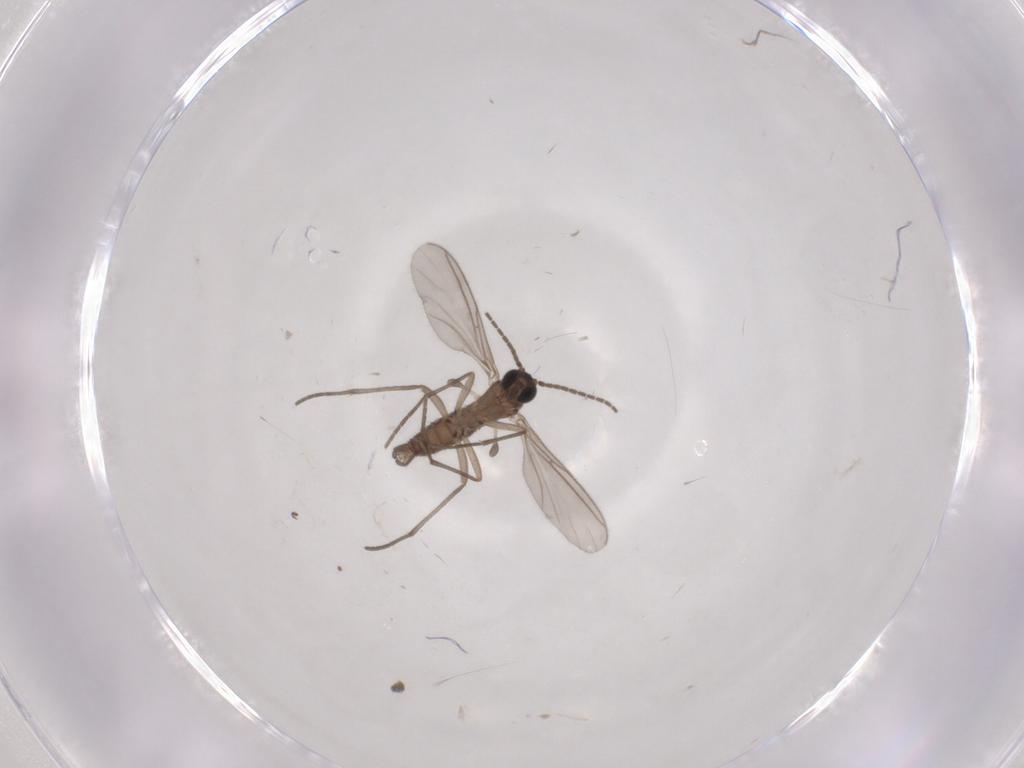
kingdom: Animalia
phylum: Arthropoda
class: Insecta
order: Diptera
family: Sciaridae
